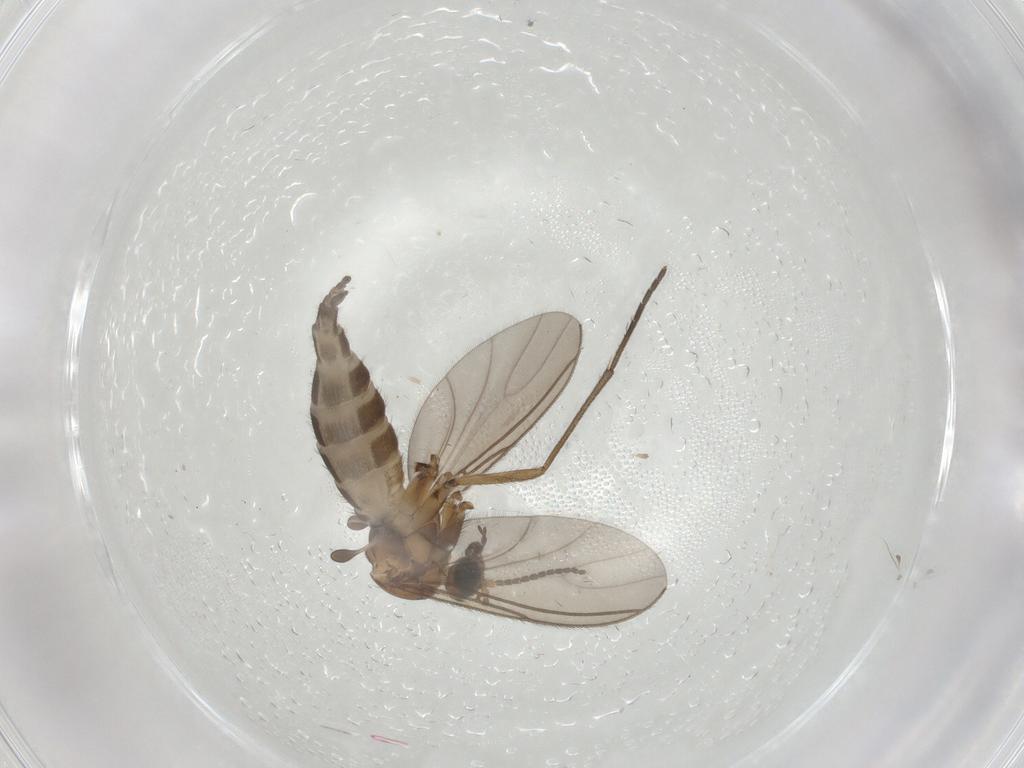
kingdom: Animalia
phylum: Arthropoda
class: Insecta
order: Diptera
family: Sciaridae
